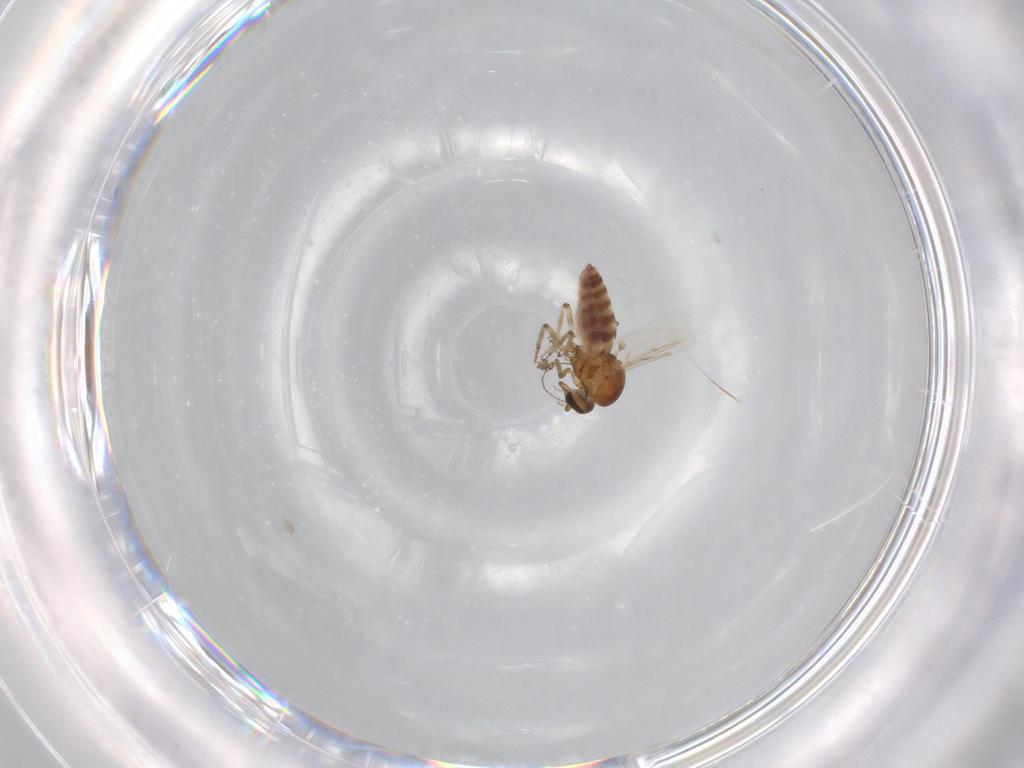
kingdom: Animalia
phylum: Arthropoda
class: Insecta
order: Diptera
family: Ceratopogonidae
